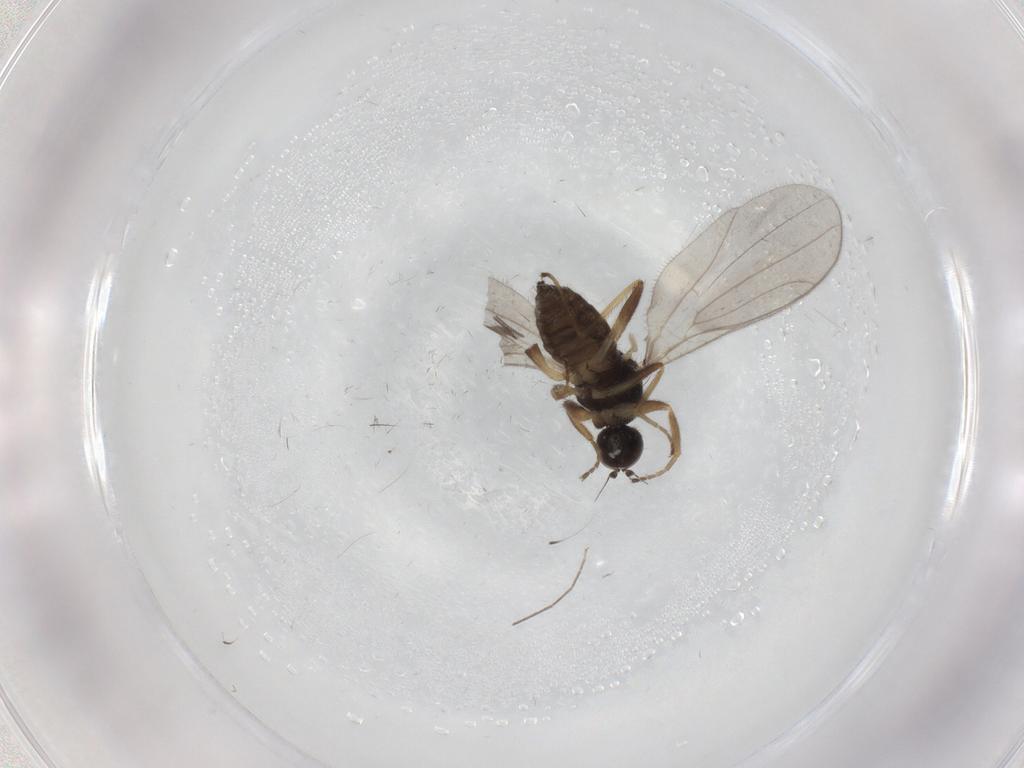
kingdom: Animalia
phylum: Arthropoda
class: Insecta
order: Diptera
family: Hybotidae
